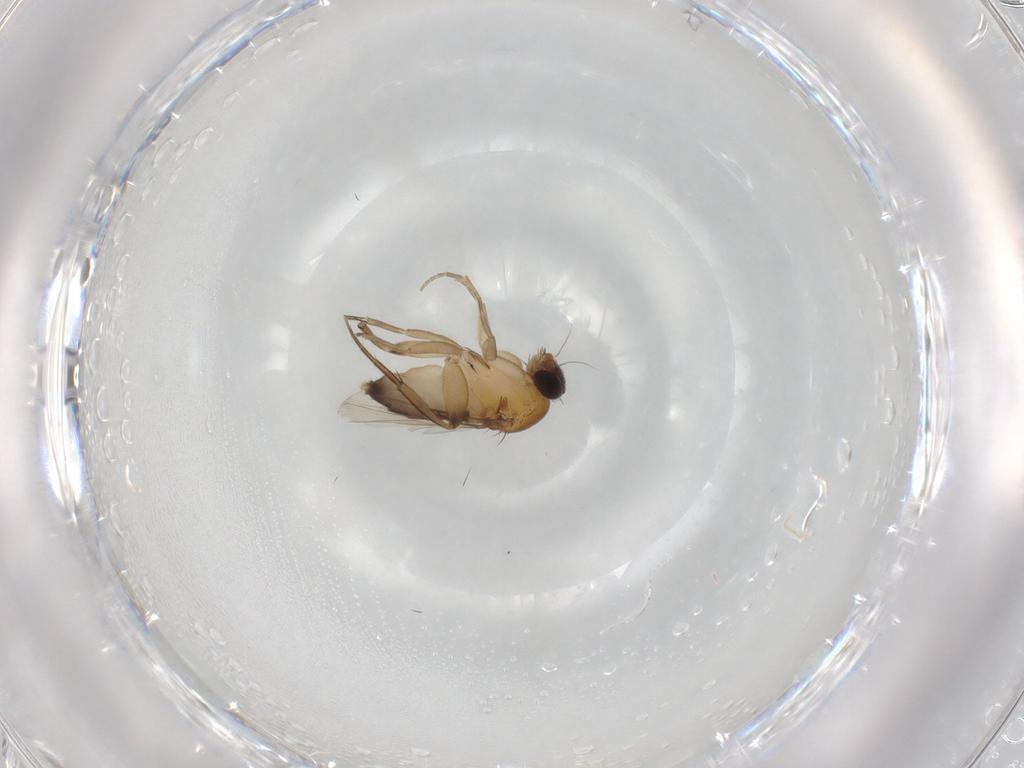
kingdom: Animalia
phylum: Arthropoda
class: Insecta
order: Diptera
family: Phoridae
